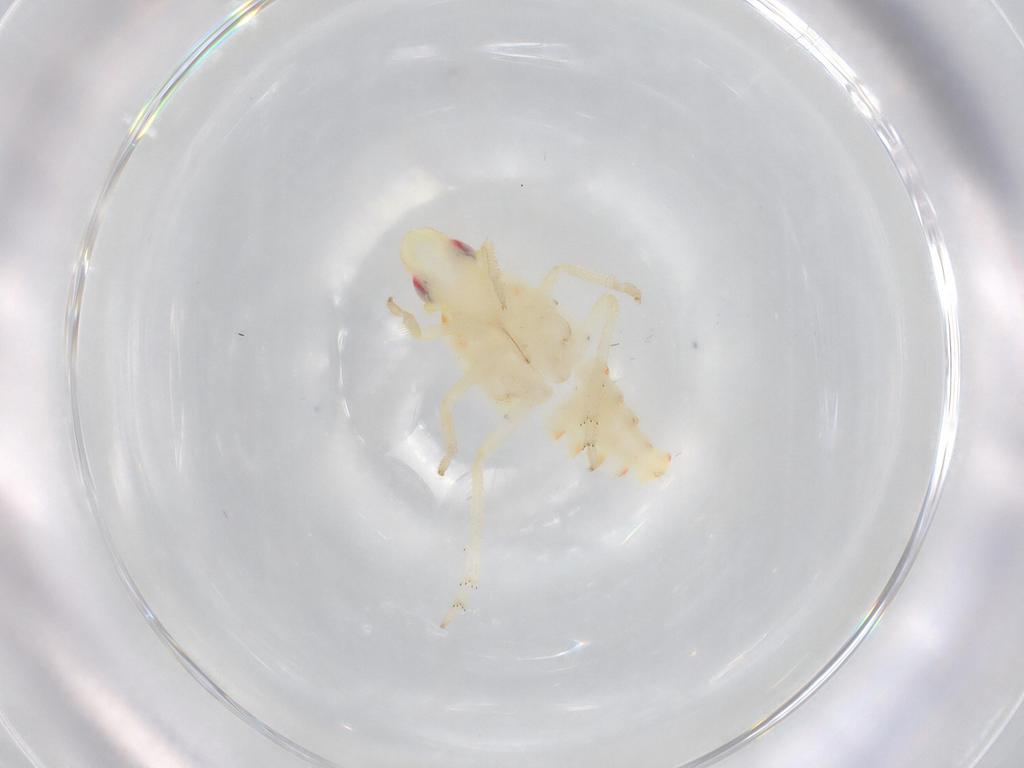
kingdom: Animalia
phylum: Arthropoda
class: Insecta
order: Hemiptera
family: Tropiduchidae
